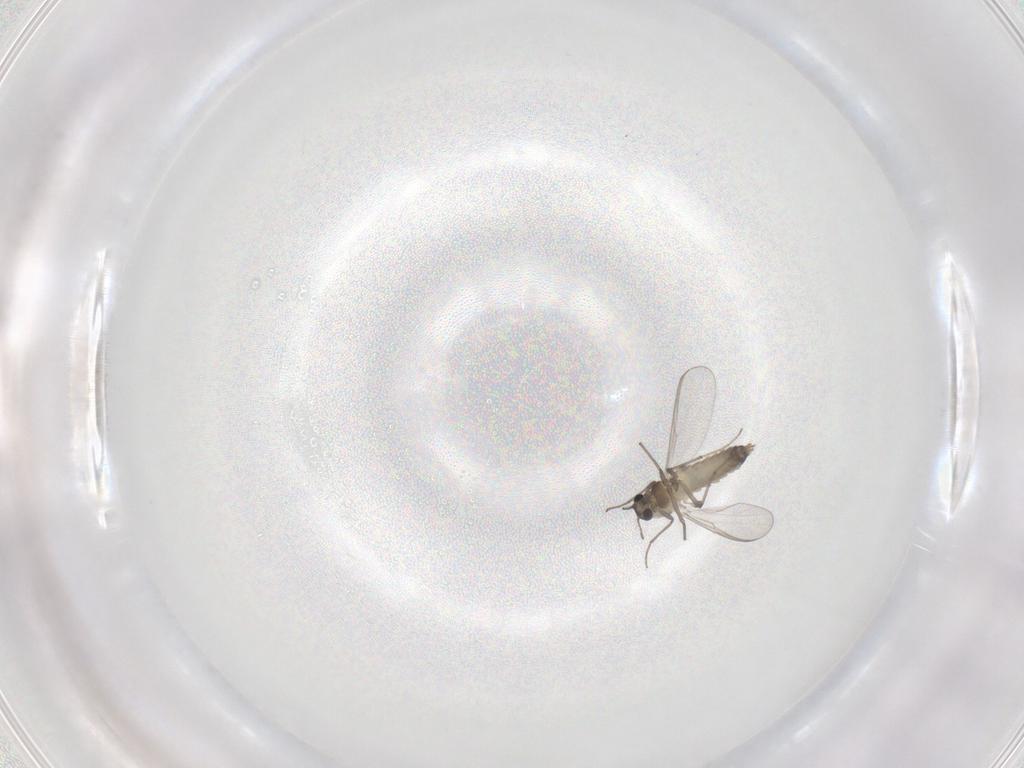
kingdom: Animalia
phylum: Arthropoda
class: Insecta
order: Diptera
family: Chironomidae
